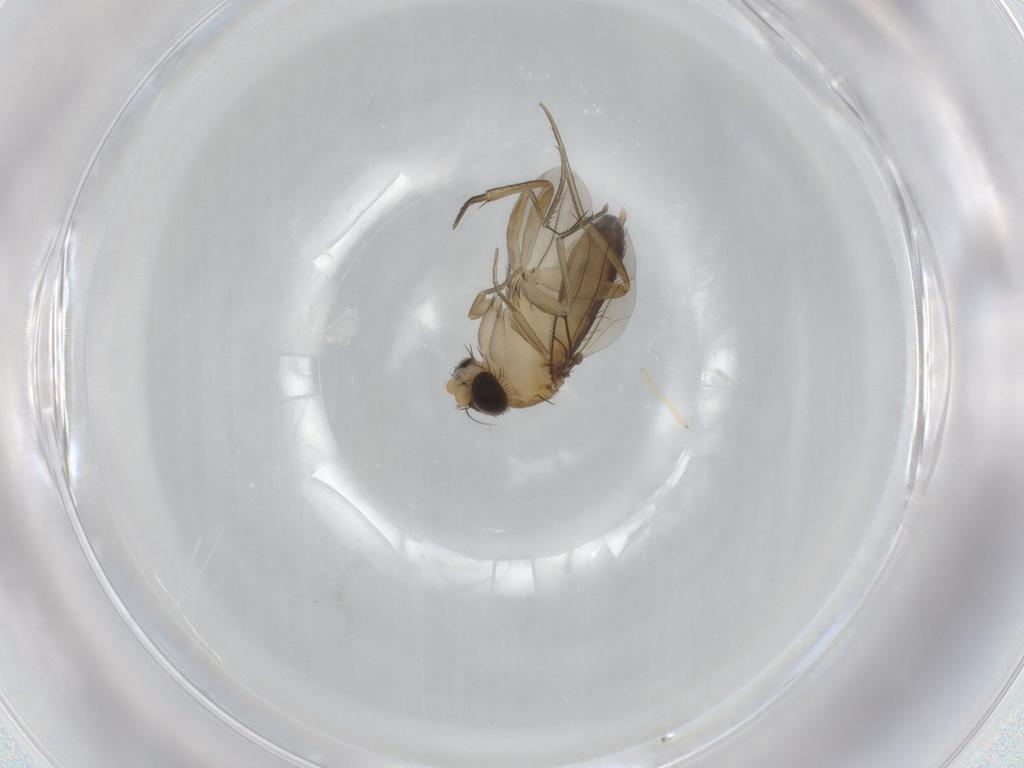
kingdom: Animalia
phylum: Arthropoda
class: Insecta
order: Diptera
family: Phoridae
